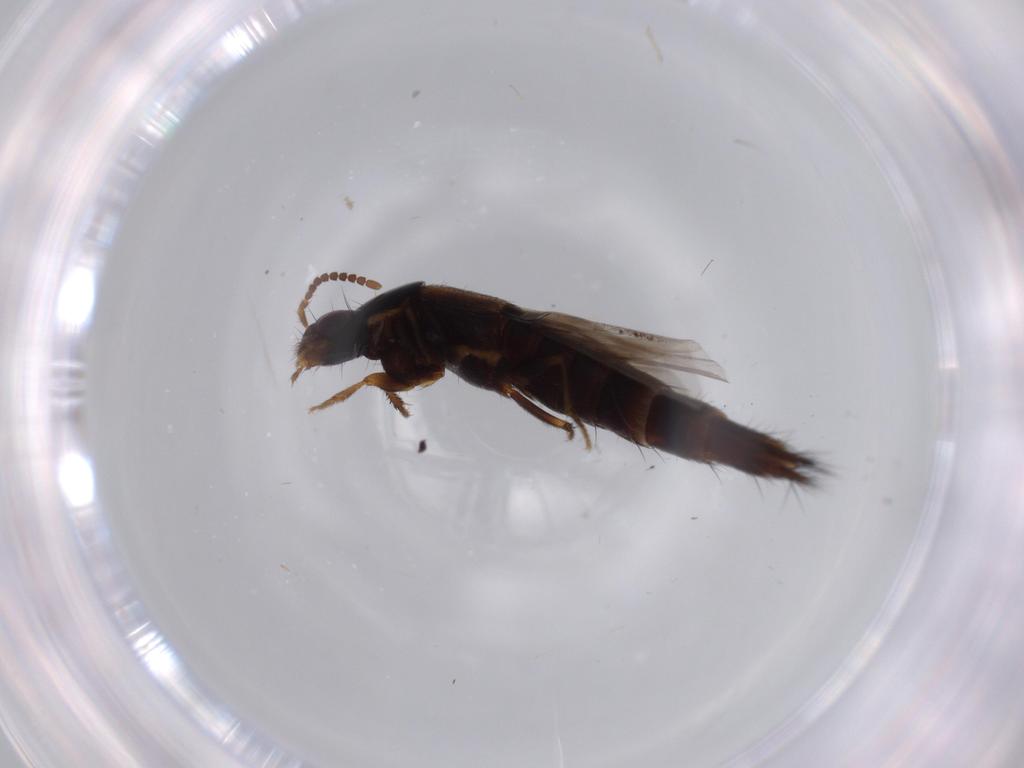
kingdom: Animalia
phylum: Arthropoda
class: Insecta
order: Coleoptera
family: Staphylinidae
